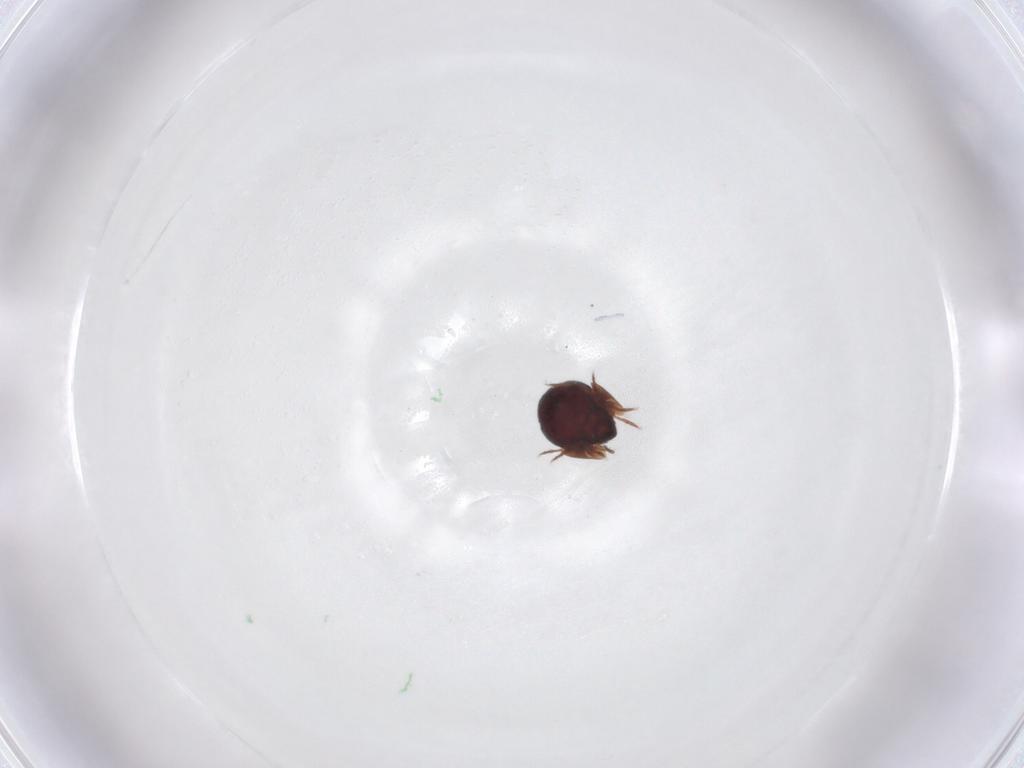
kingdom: Animalia
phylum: Arthropoda
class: Arachnida
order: Sarcoptiformes
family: Galumnidae
